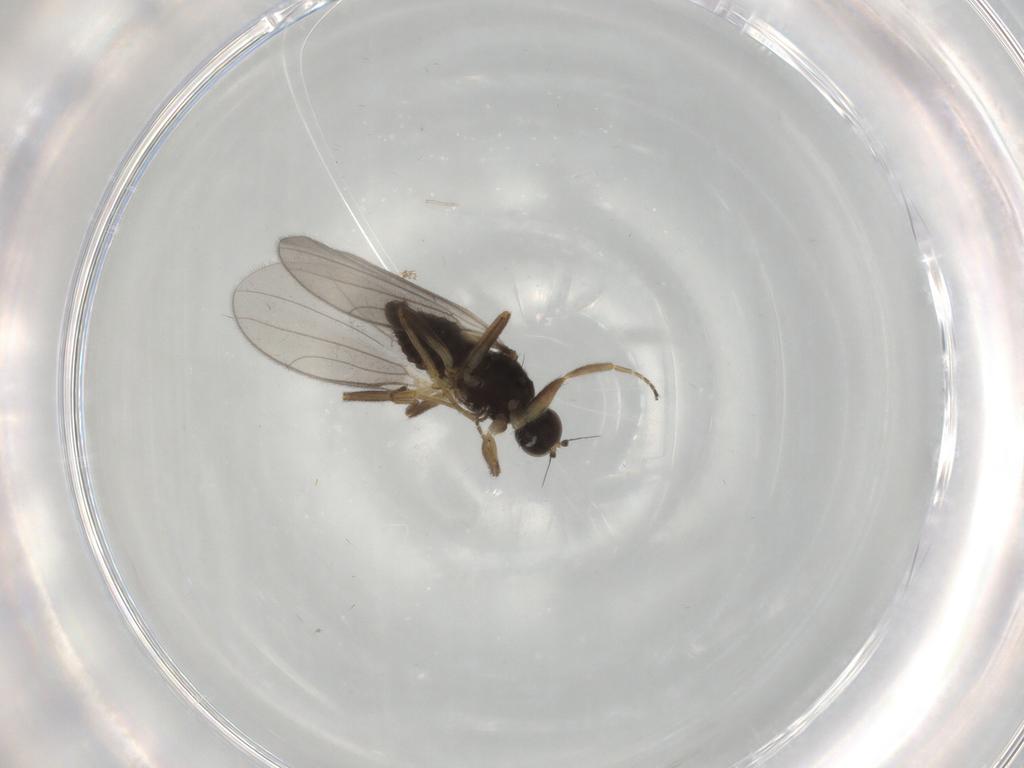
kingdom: Animalia
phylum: Arthropoda
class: Insecta
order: Diptera
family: Hybotidae
